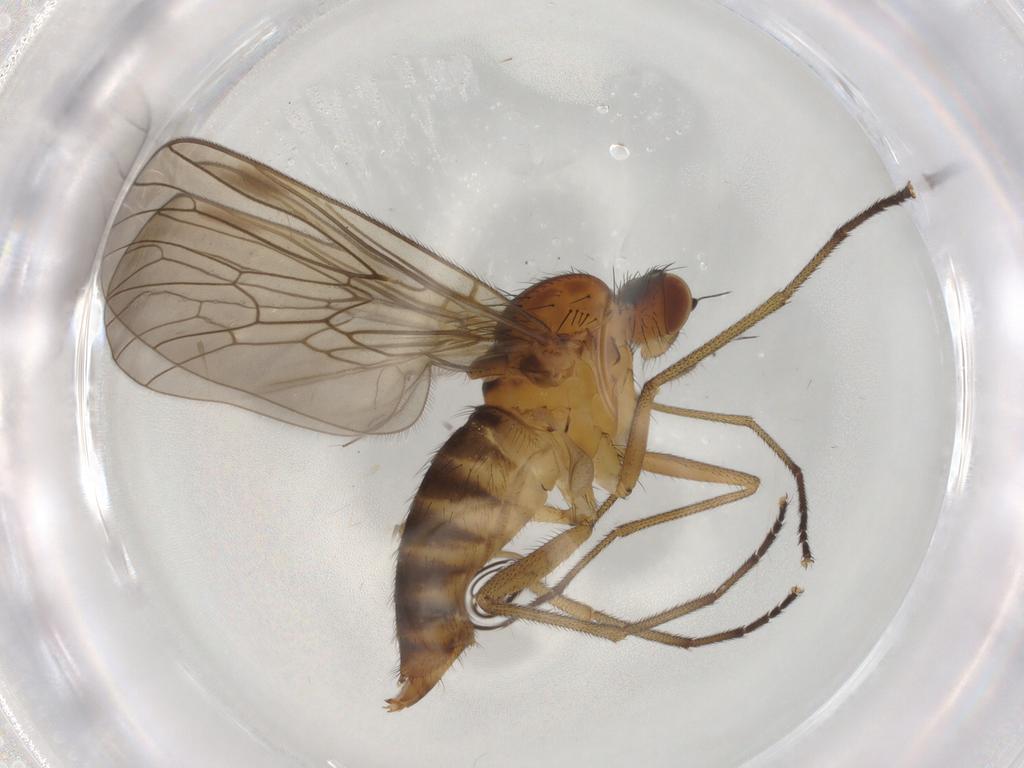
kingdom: Animalia
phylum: Arthropoda
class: Insecta
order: Diptera
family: Brachystomatidae
